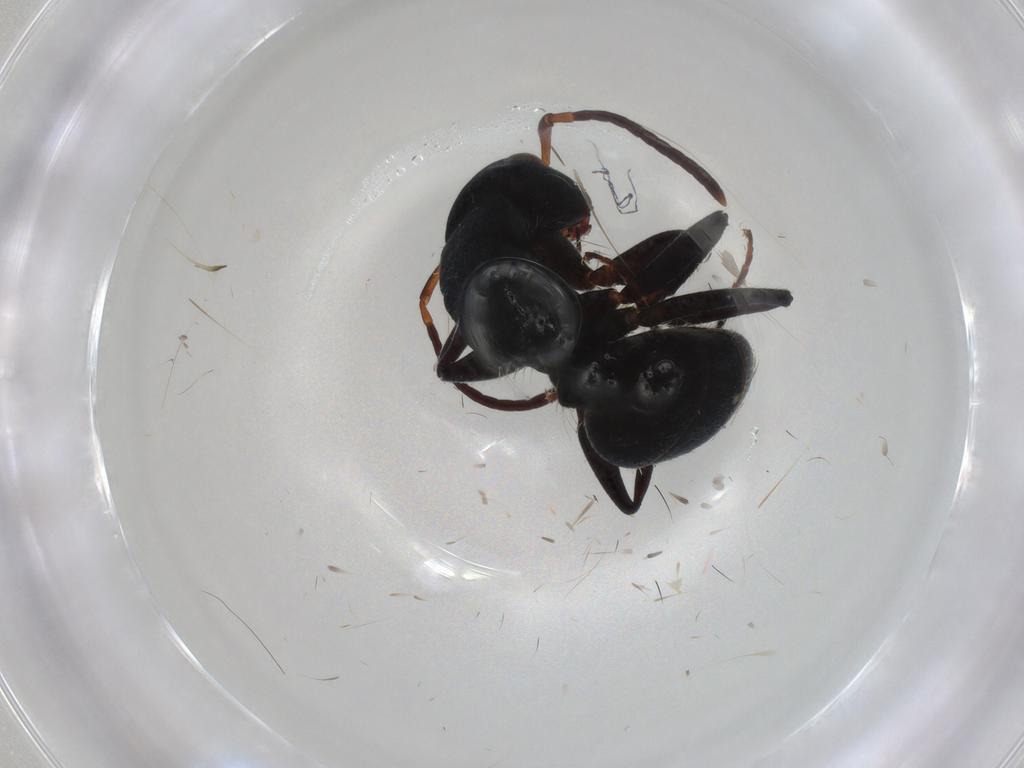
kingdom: Animalia
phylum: Arthropoda
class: Insecta
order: Hymenoptera
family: Formicidae
